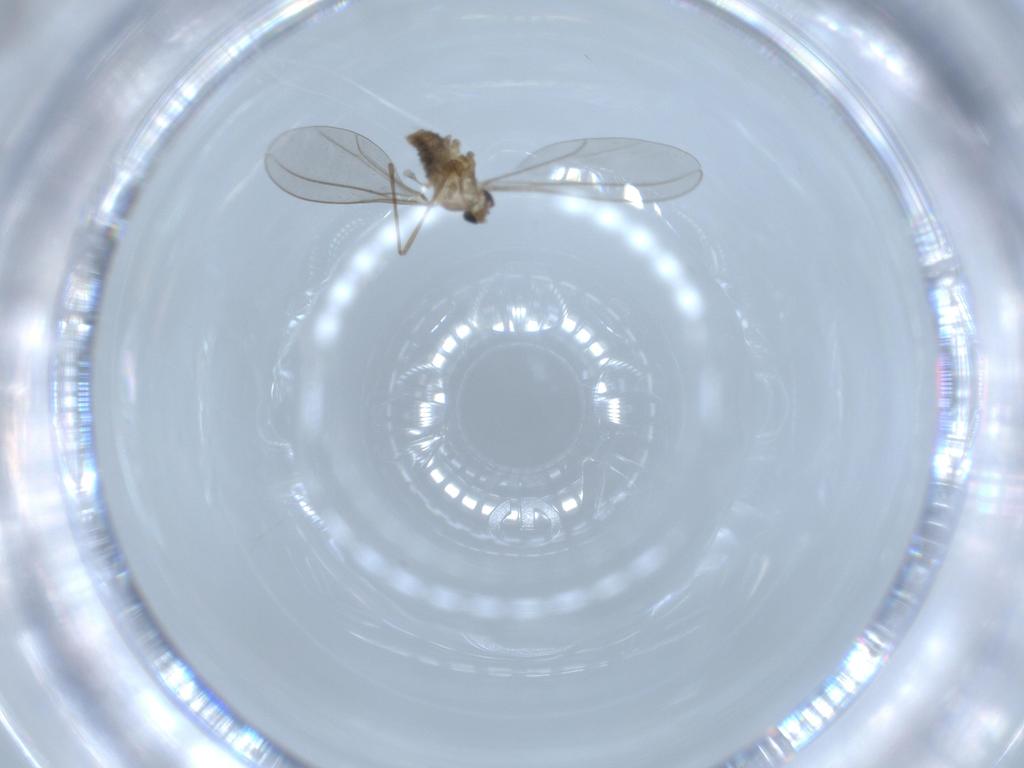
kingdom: Animalia
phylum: Arthropoda
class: Insecta
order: Diptera
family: Cecidomyiidae
